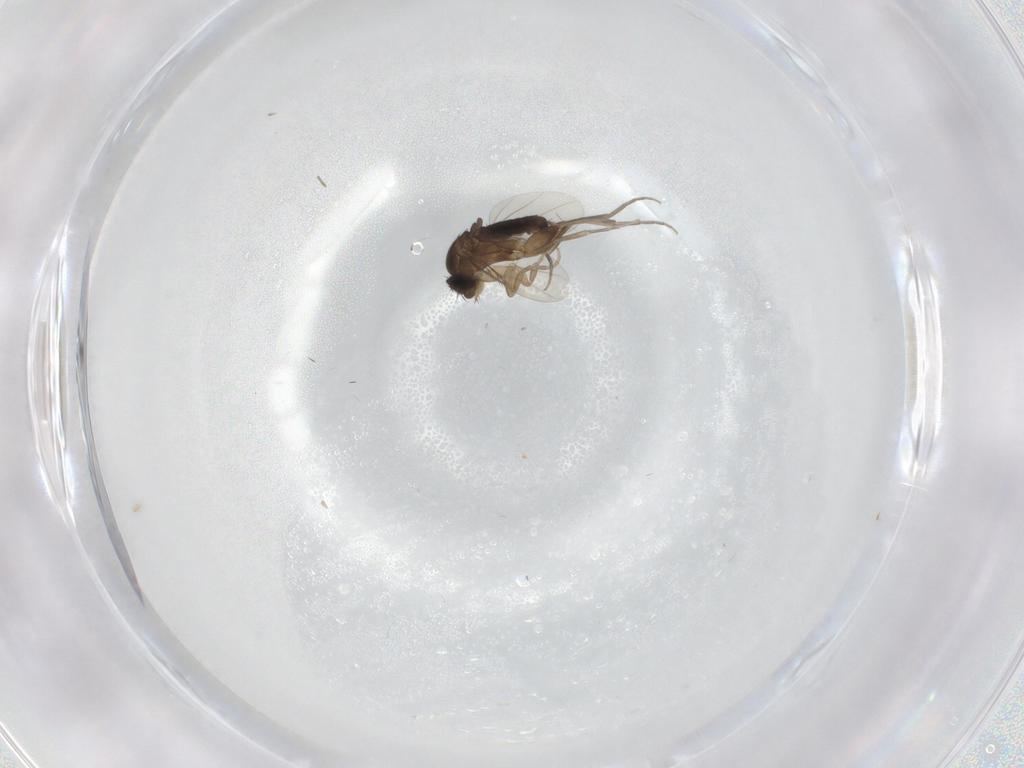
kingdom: Animalia
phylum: Arthropoda
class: Insecta
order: Diptera
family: Phoridae
